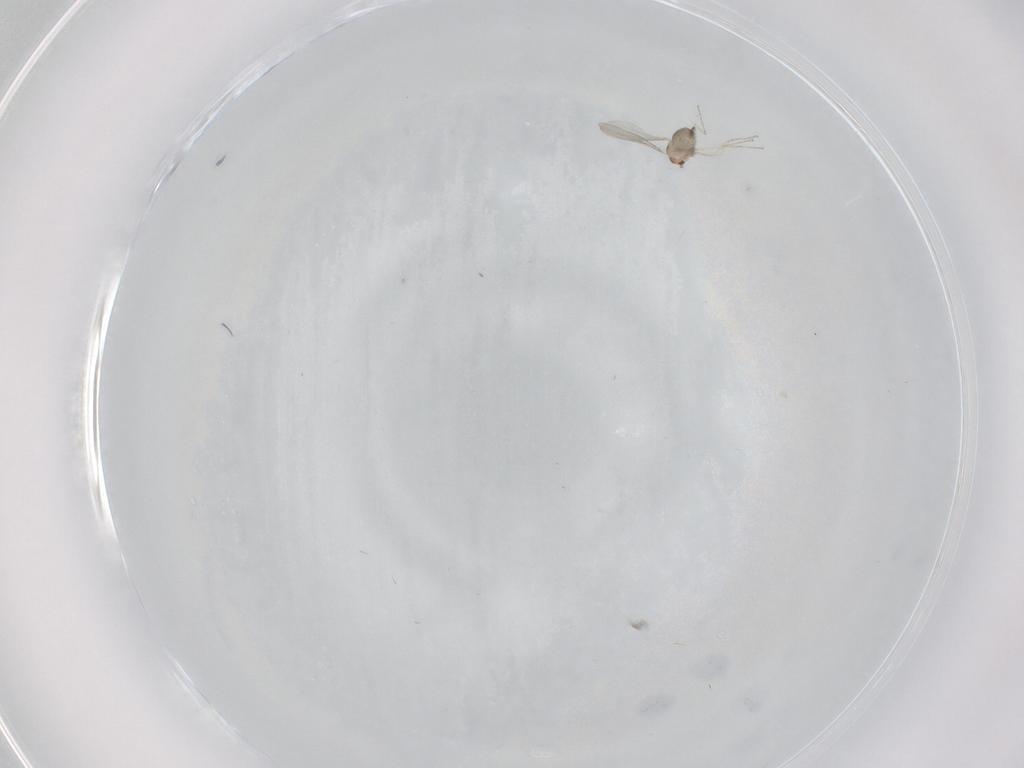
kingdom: Animalia
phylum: Arthropoda
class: Insecta
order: Diptera
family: Cecidomyiidae
